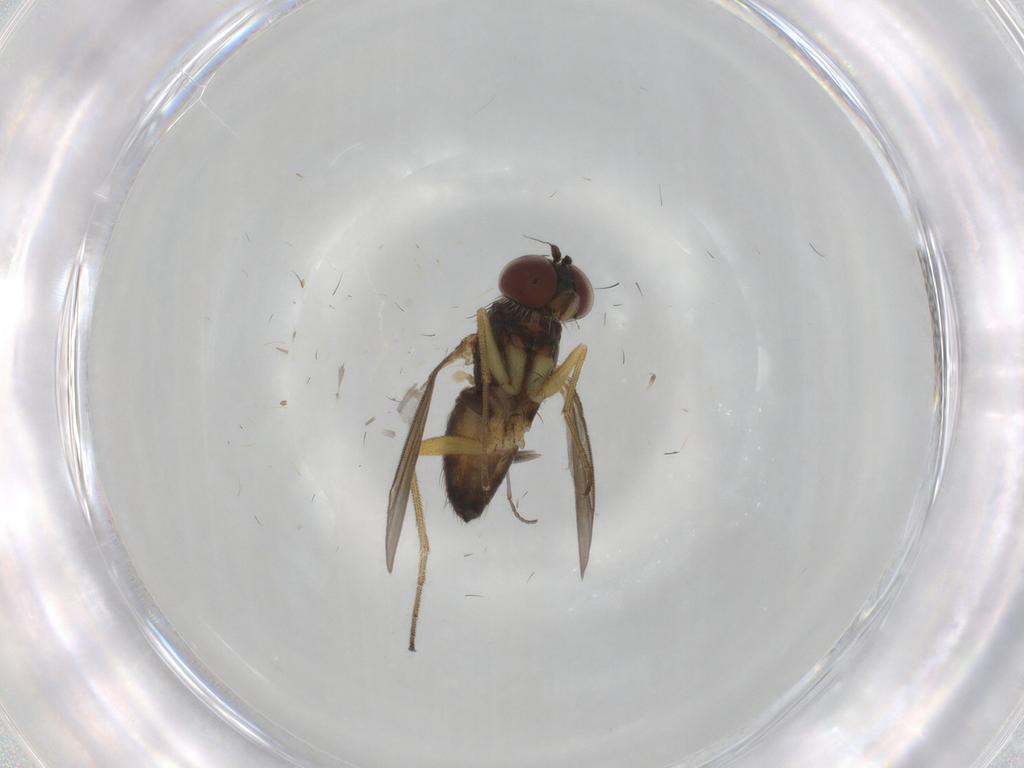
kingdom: Animalia
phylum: Arthropoda
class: Insecta
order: Diptera
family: Dolichopodidae
